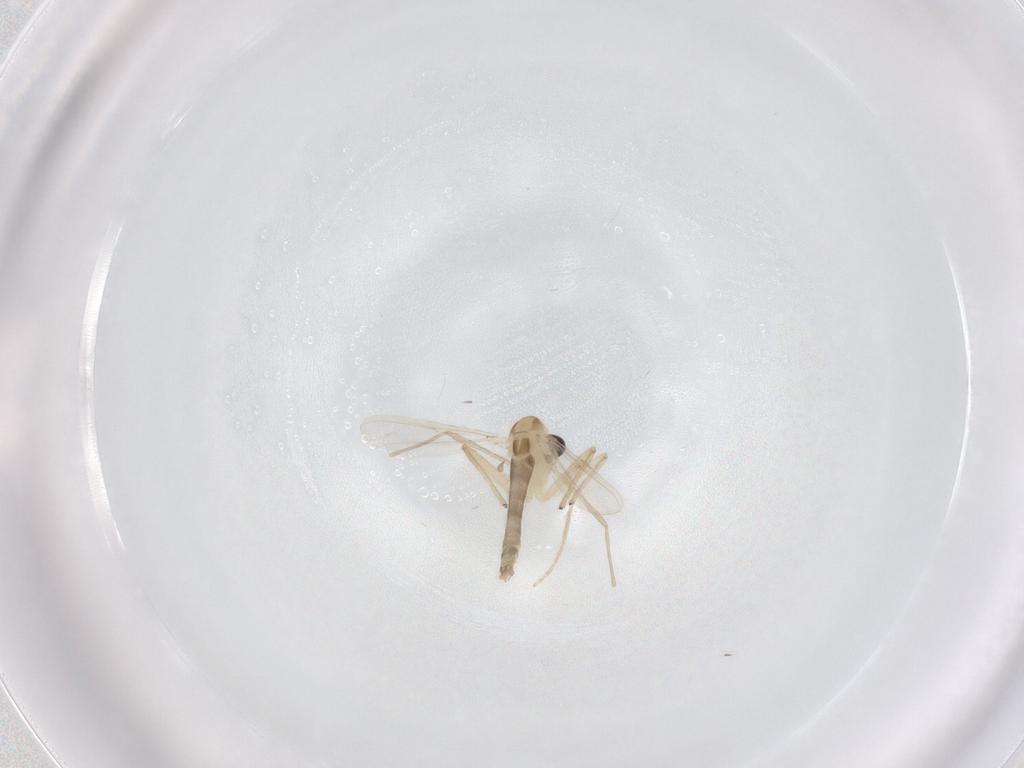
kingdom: Animalia
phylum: Arthropoda
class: Insecta
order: Diptera
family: Chironomidae
